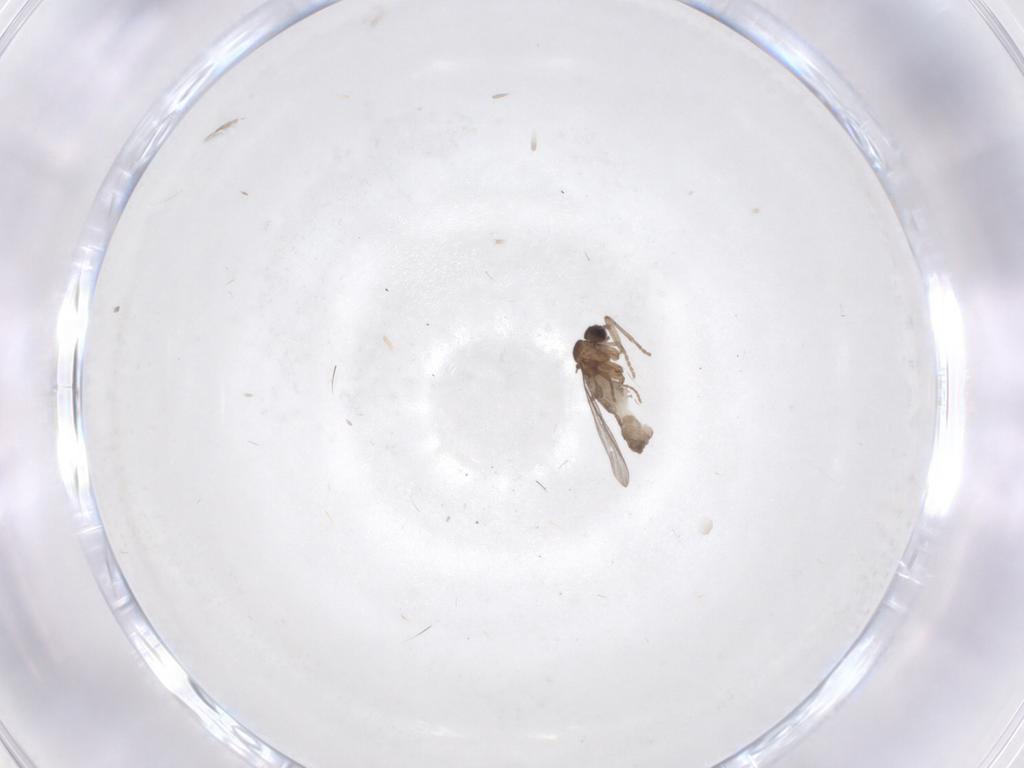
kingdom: Animalia
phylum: Arthropoda
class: Insecta
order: Diptera
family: Cecidomyiidae
